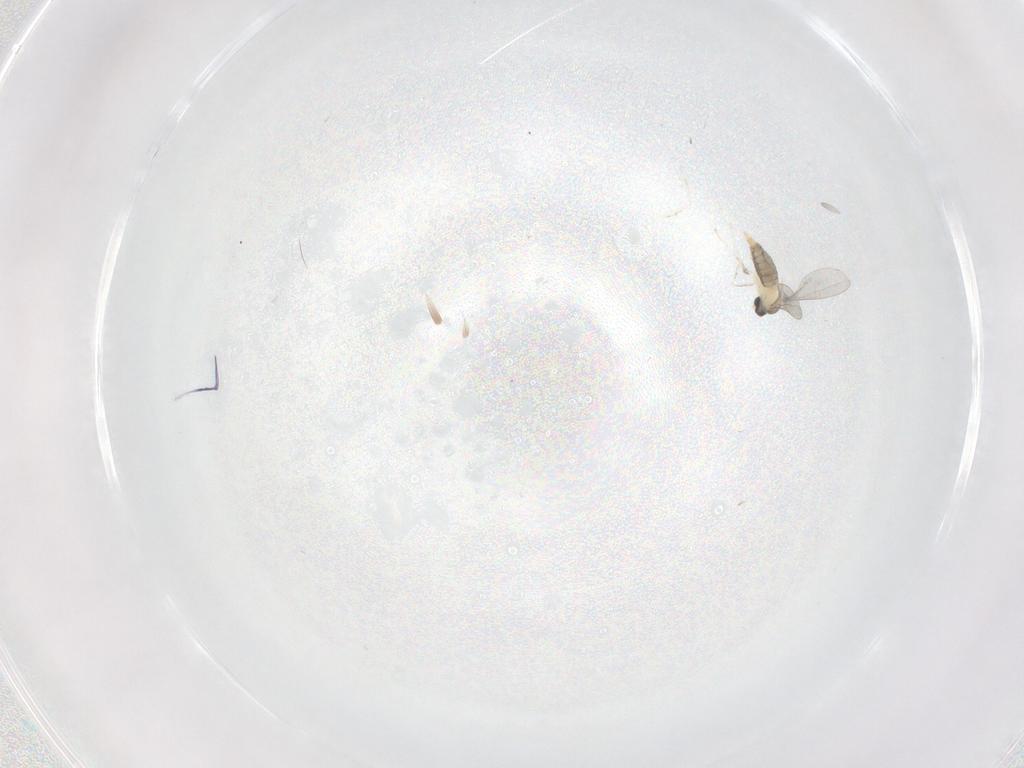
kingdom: Animalia
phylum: Arthropoda
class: Insecta
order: Diptera
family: Cecidomyiidae
